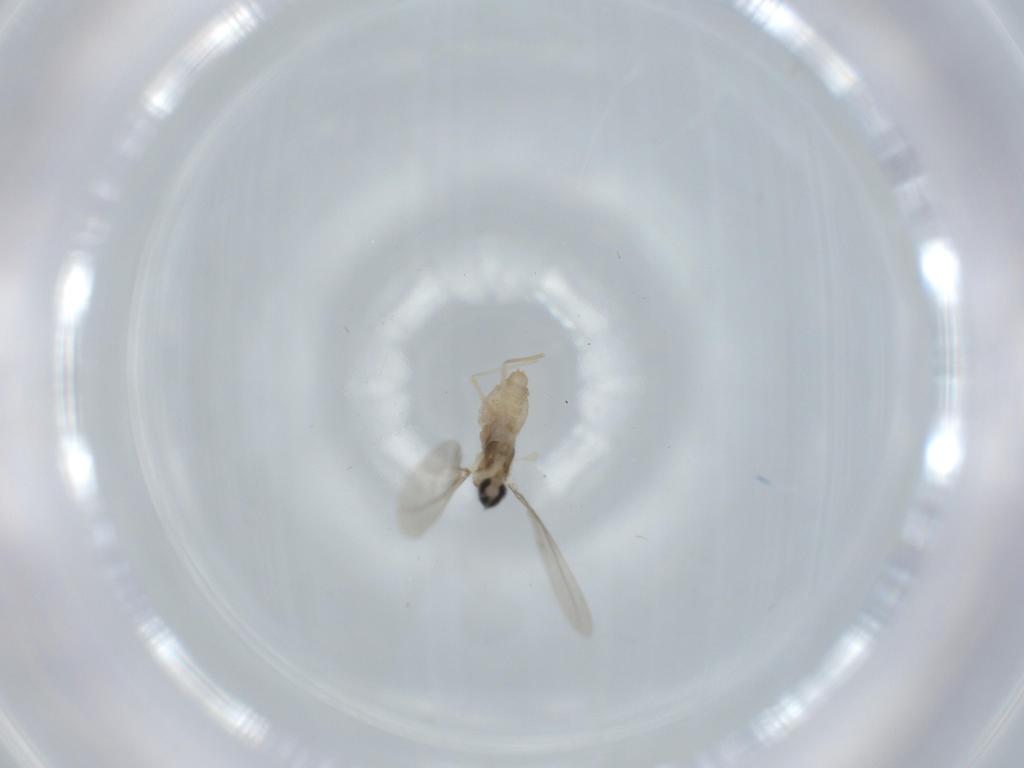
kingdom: Animalia
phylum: Arthropoda
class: Insecta
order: Diptera
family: Cecidomyiidae
